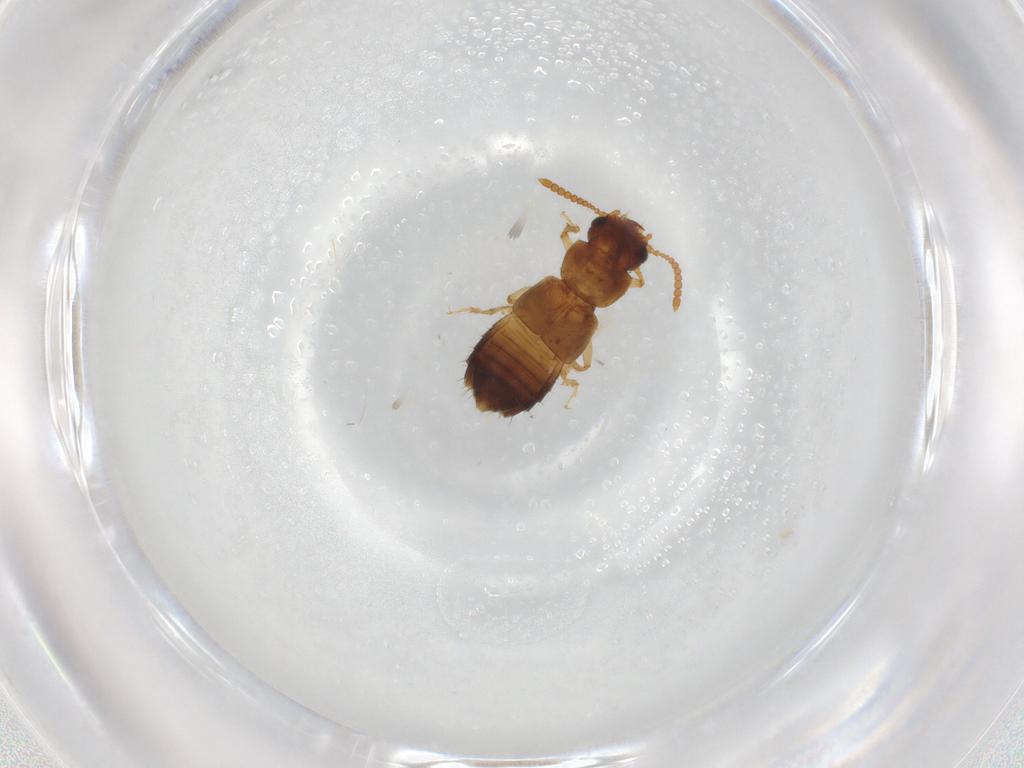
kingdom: Animalia
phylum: Arthropoda
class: Insecta
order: Coleoptera
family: Staphylinidae
